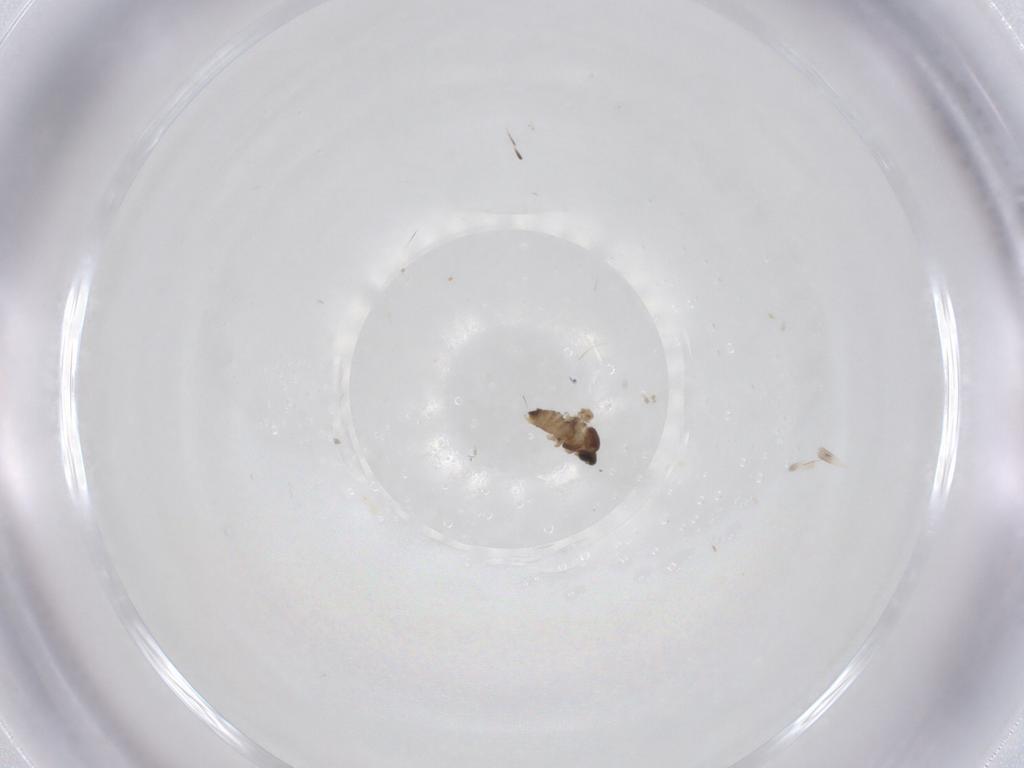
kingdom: Animalia
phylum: Arthropoda
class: Insecta
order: Diptera
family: Cecidomyiidae
